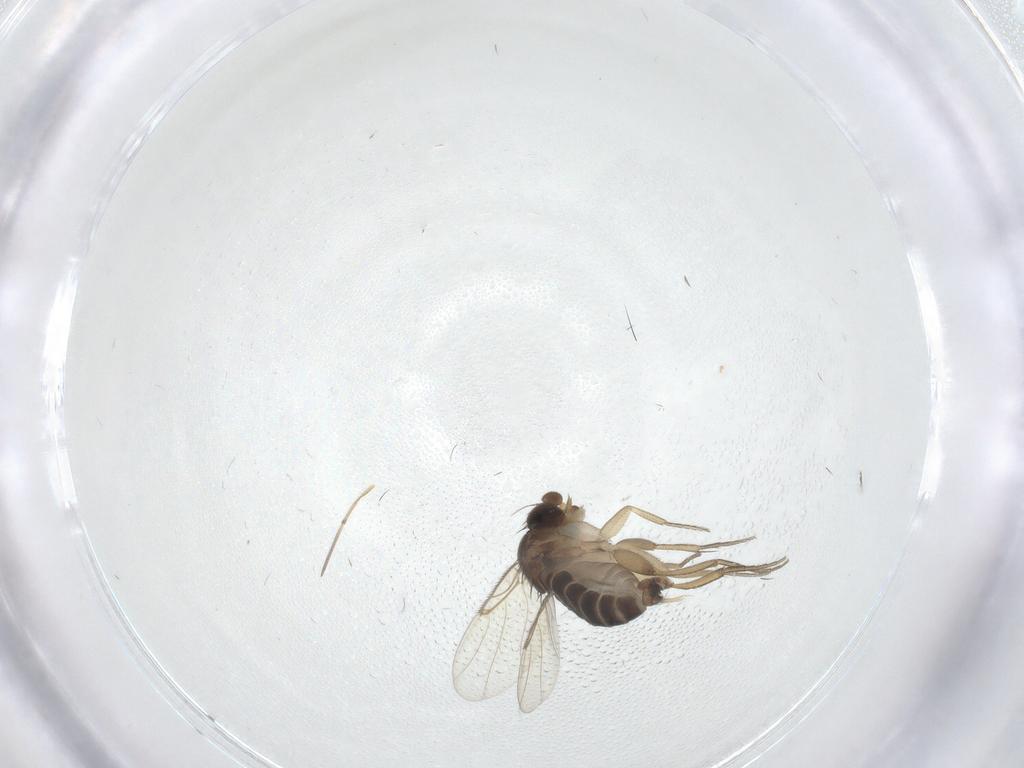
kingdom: Animalia
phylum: Arthropoda
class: Insecta
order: Diptera
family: Phoridae
